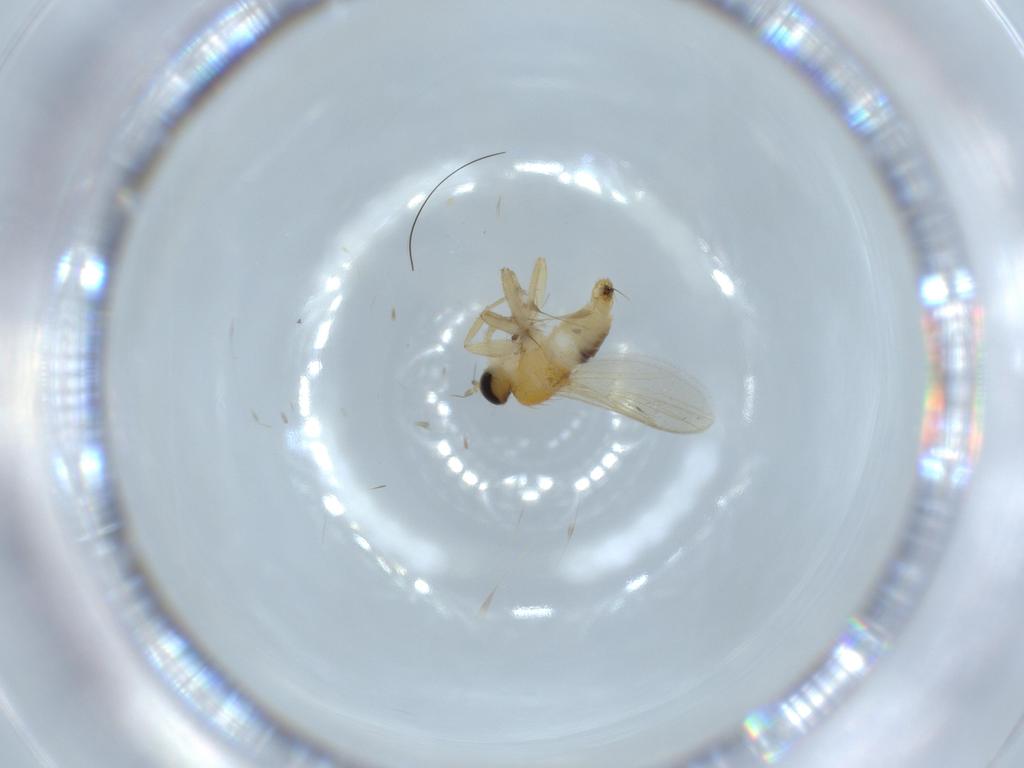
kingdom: Animalia
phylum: Arthropoda
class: Insecta
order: Diptera
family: Hybotidae
